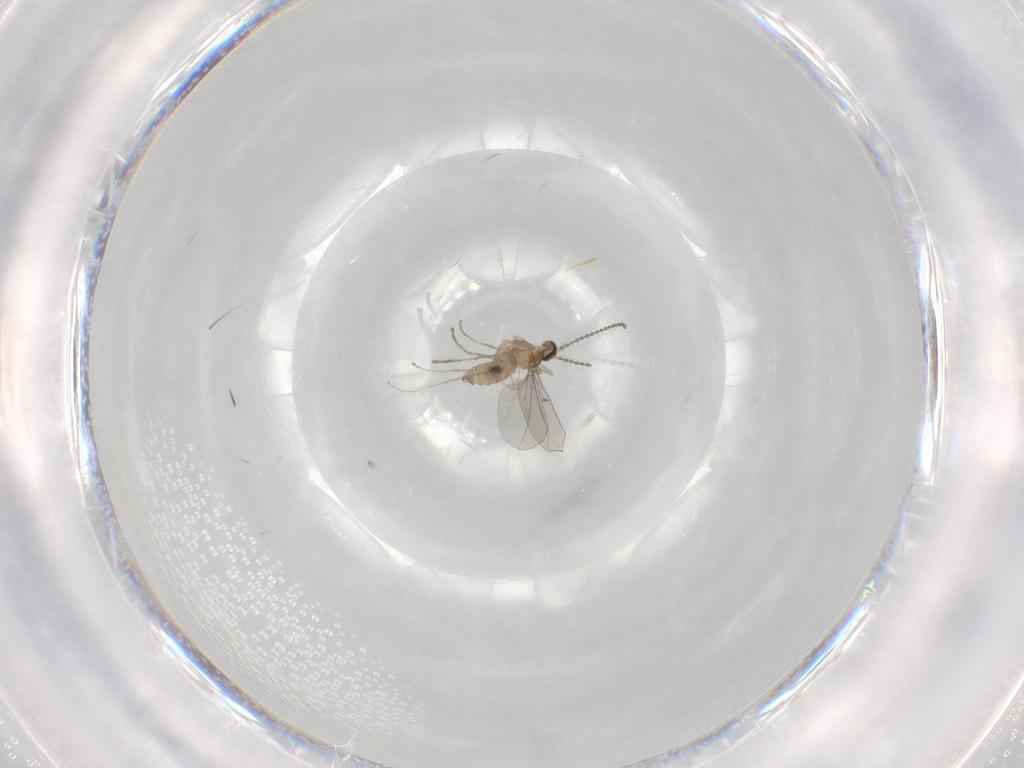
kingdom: Animalia
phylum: Arthropoda
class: Insecta
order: Diptera
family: Cecidomyiidae
